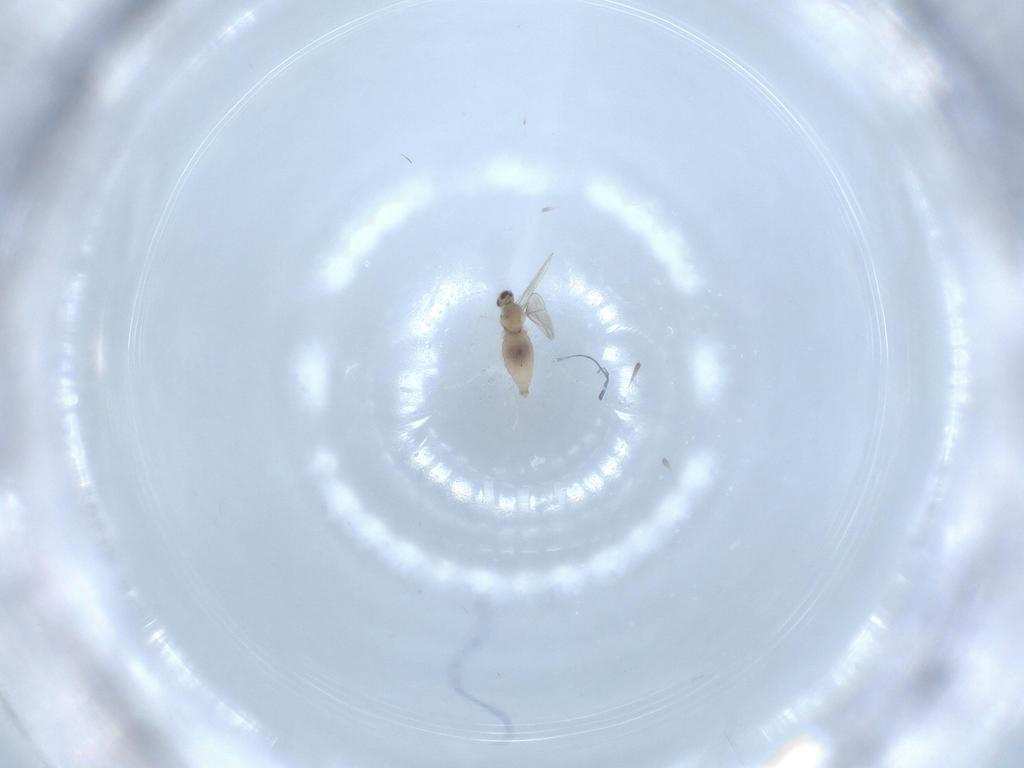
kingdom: Animalia
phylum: Arthropoda
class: Insecta
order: Diptera
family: Cecidomyiidae
